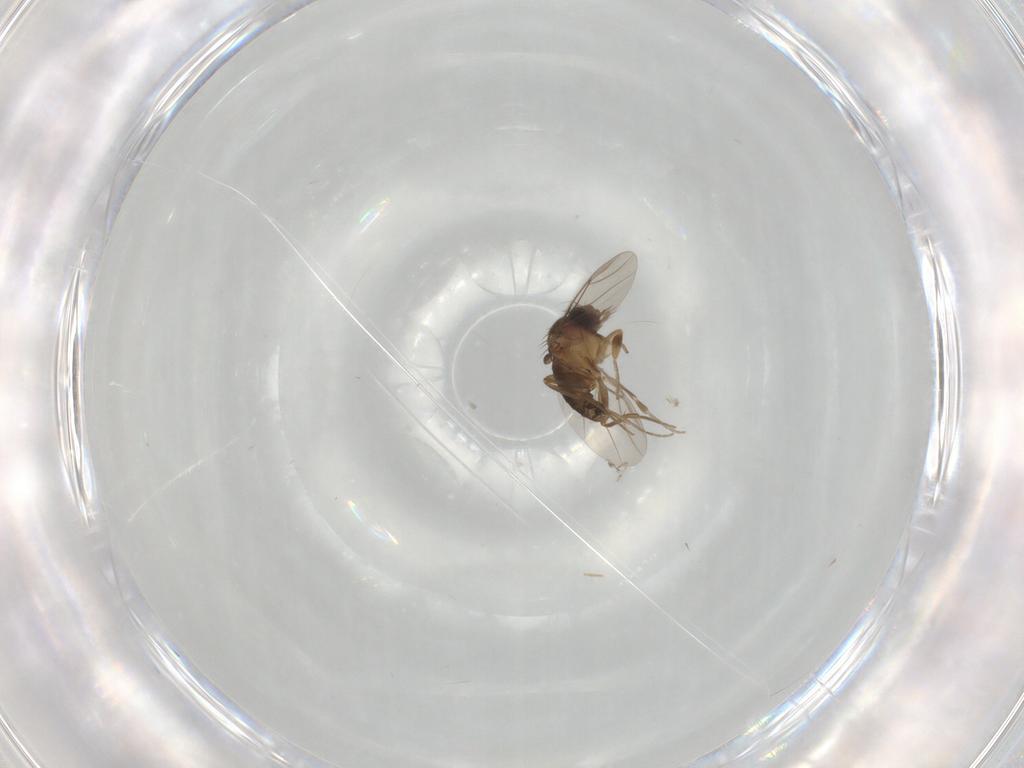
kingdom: Animalia
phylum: Arthropoda
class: Insecta
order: Diptera
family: Phoridae
